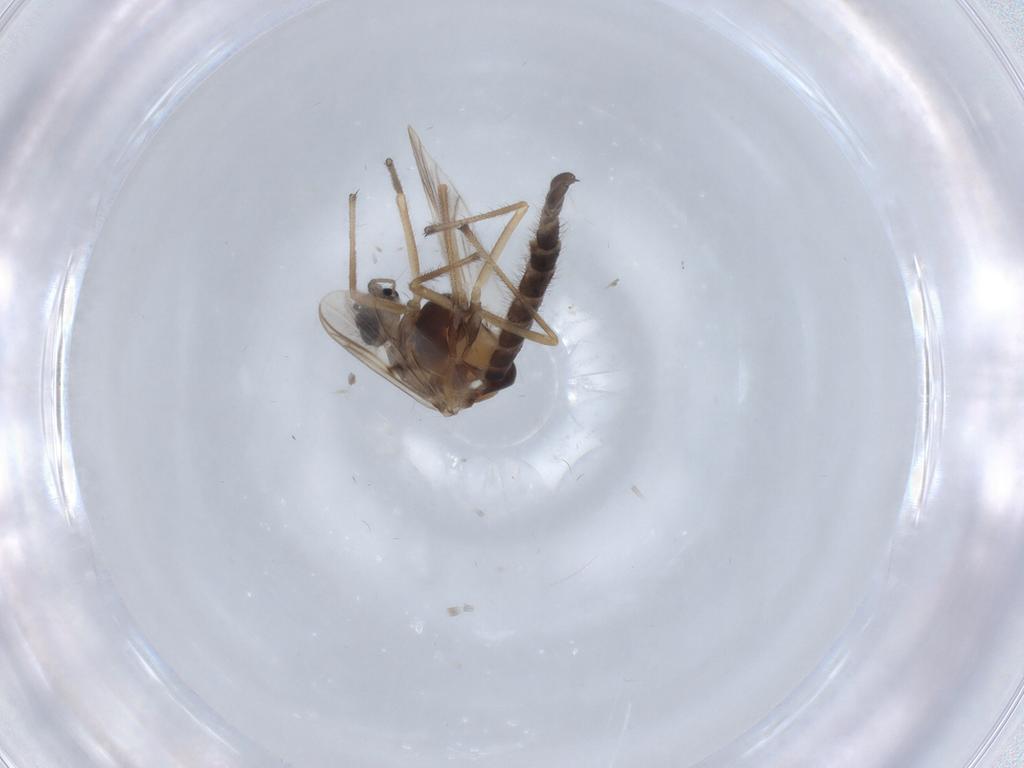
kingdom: Animalia
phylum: Arthropoda
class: Insecta
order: Diptera
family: Chironomidae
